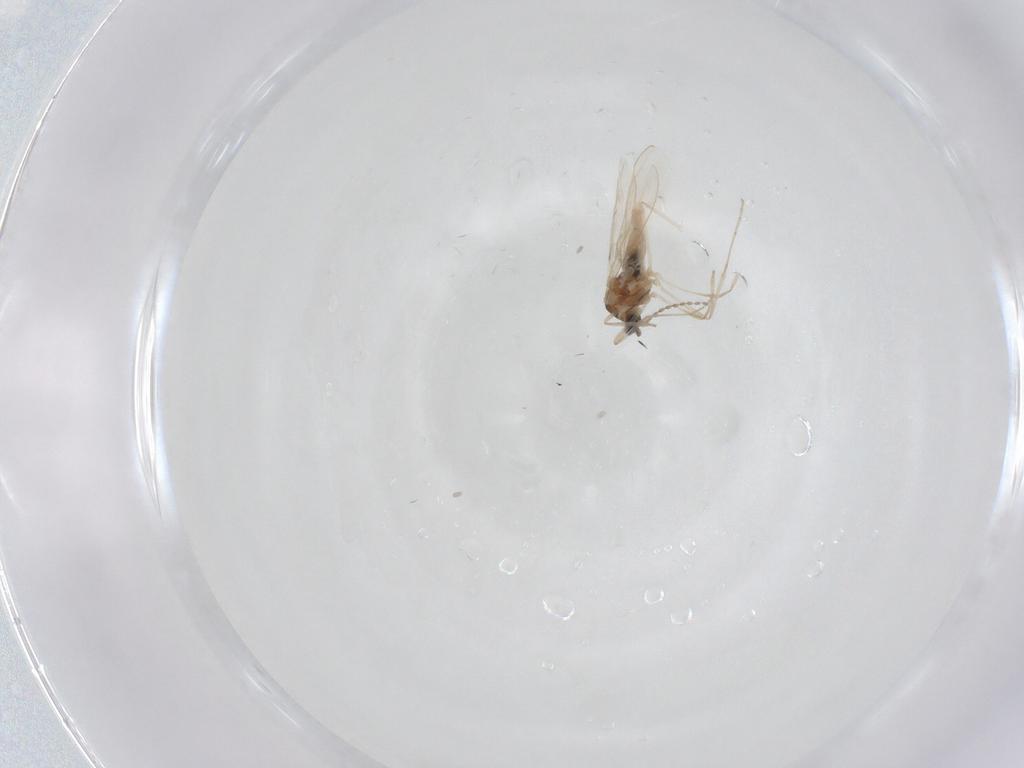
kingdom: Animalia
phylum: Arthropoda
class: Insecta
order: Diptera
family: Cecidomyiidae
